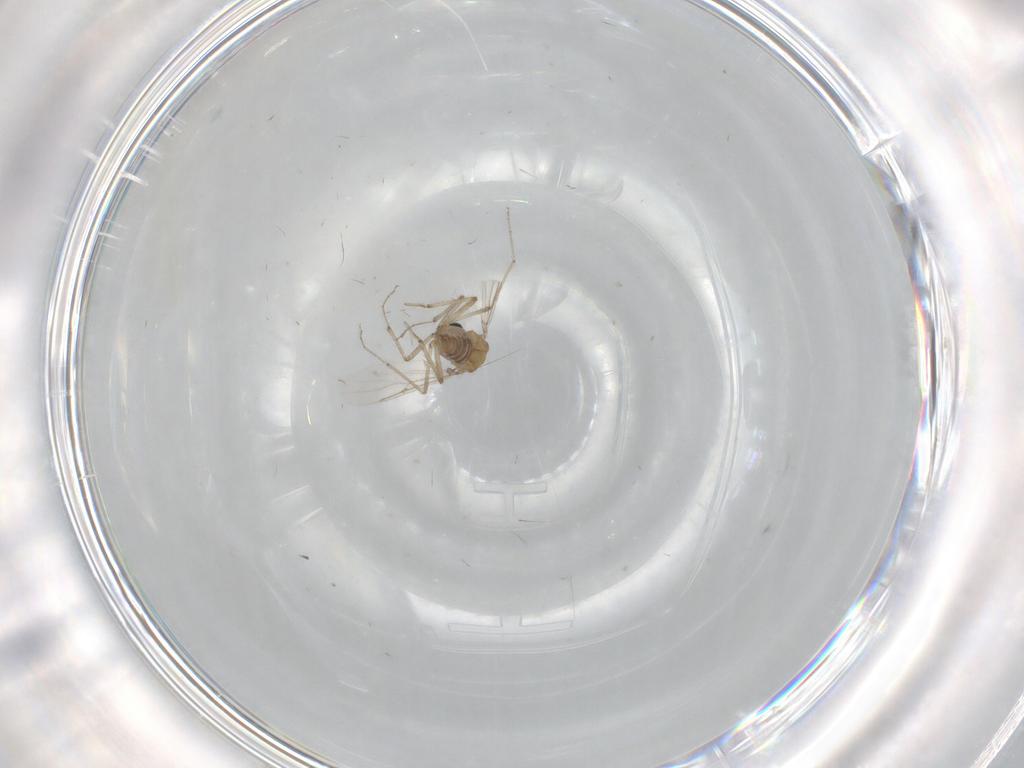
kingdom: Animalia
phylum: Arthropoda
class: Insecta
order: Diptera
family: Ceratopogonidae
